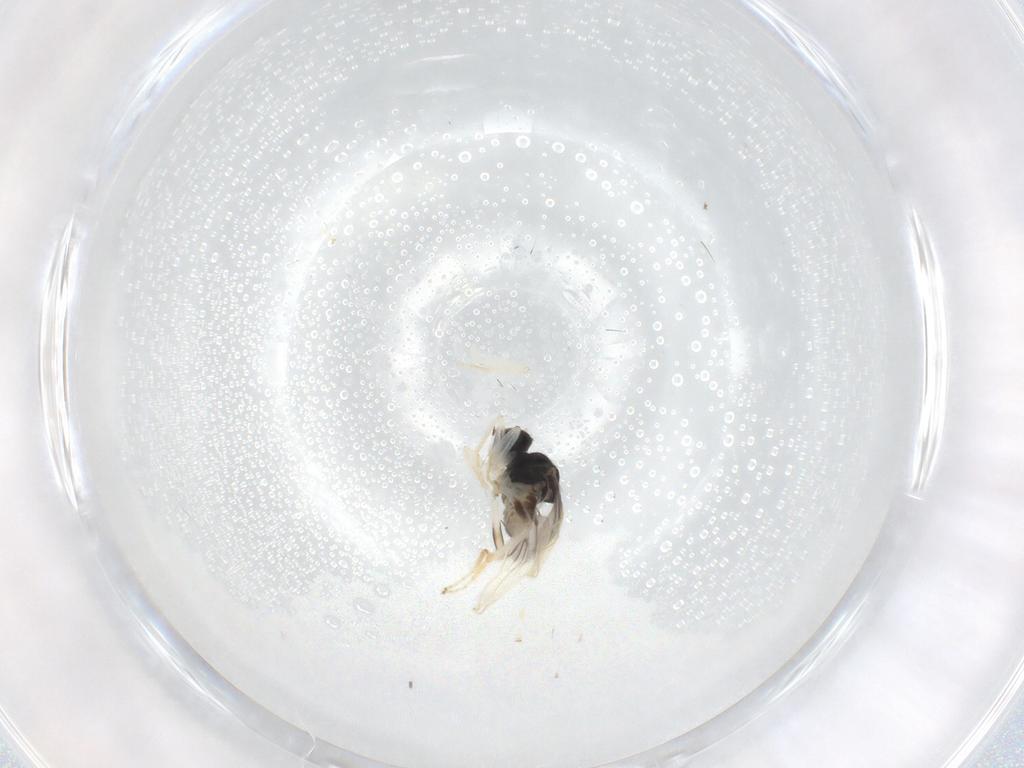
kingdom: Animalia
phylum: Arthropoda
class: Insecta
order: Diptera
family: Hybotidae
